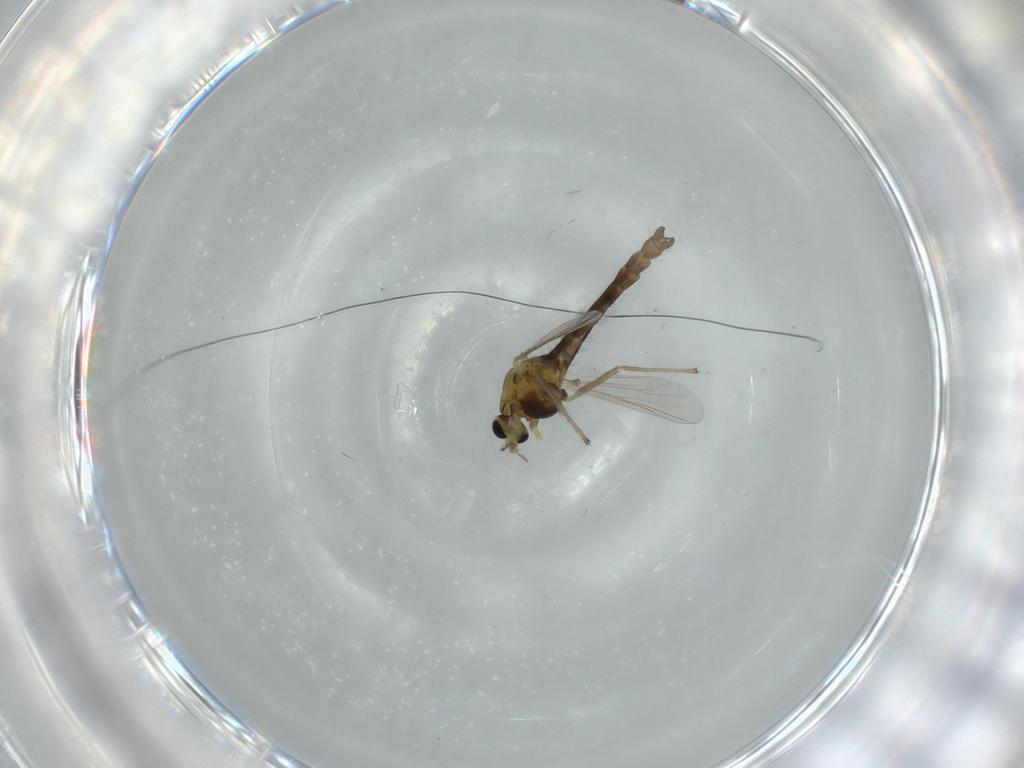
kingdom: Animalia
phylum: Arthropoda
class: Insecta
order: Diptera
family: Chironomidae
